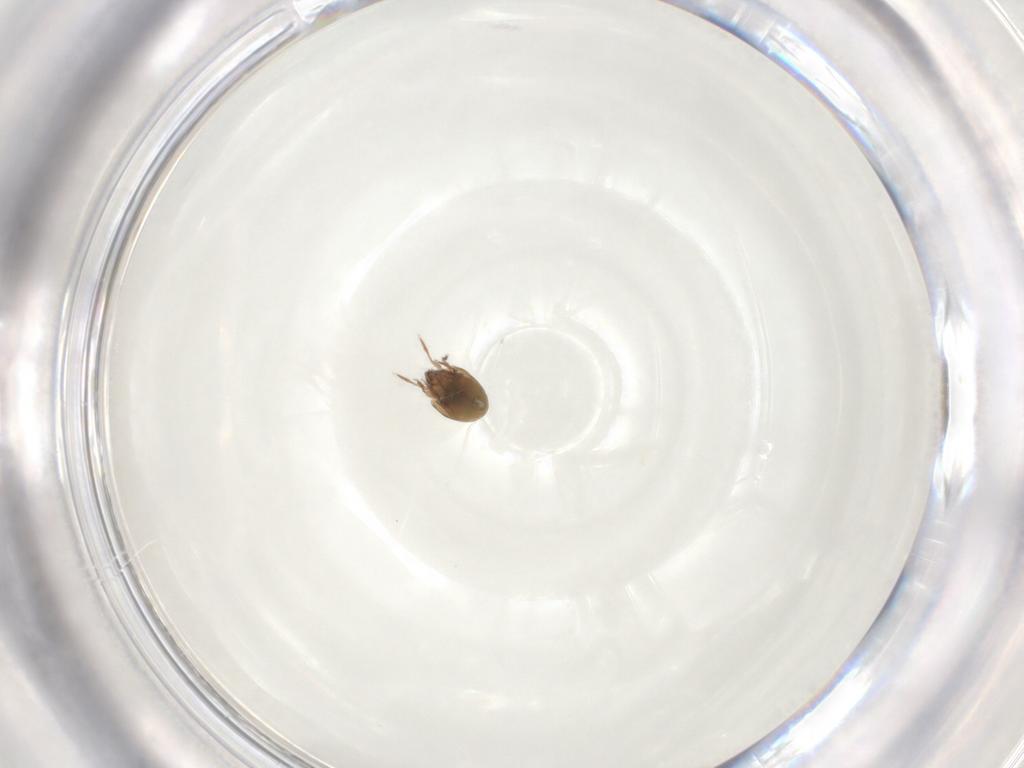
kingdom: Animalia
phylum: Arthropoda
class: Arachnida
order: Sarcoptiformes
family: Mochlozetidae
